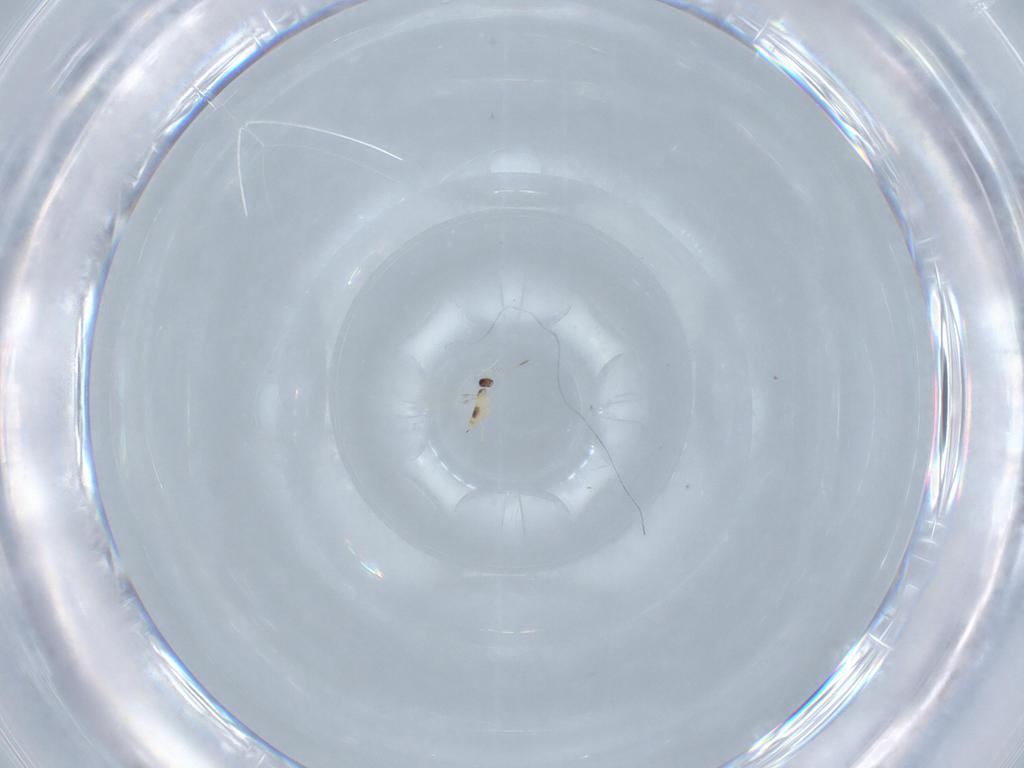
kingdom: Animalia
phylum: Arthropoda
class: Insecta
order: Hymenoptera
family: Mymaridae
